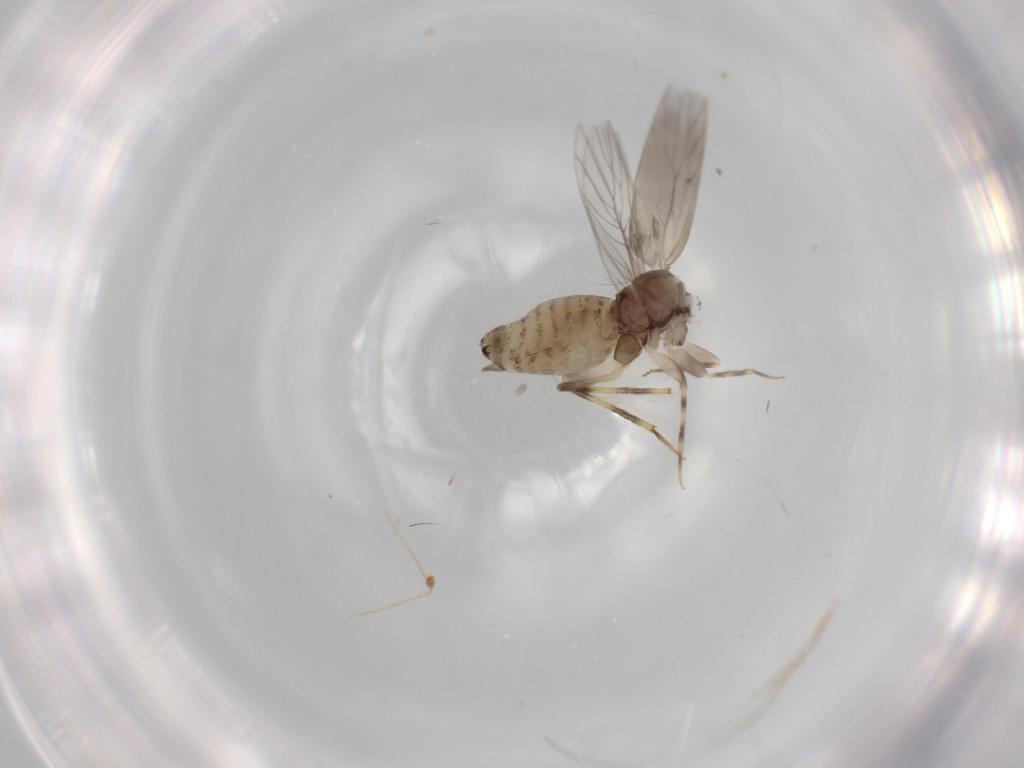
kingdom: Animalia
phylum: Arthropoda
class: Insecta
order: Psocodea
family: Lepidopsocidae
